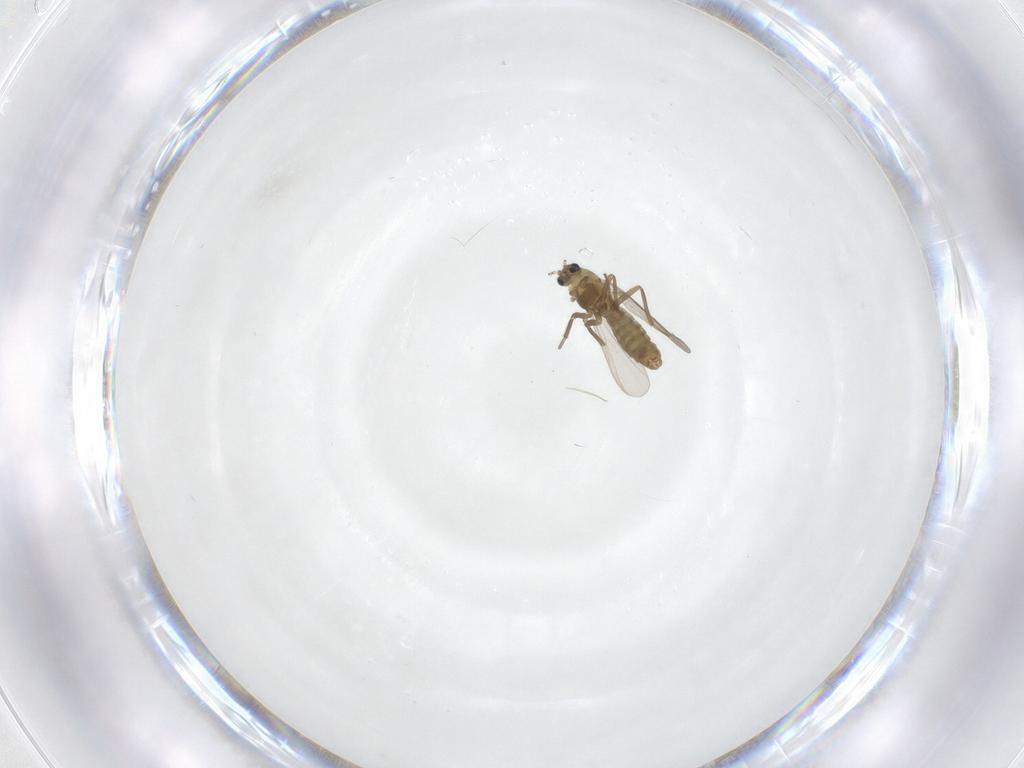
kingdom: Animalia
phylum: Arthropoda
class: Insecta
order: Diptera
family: Chironomidae
